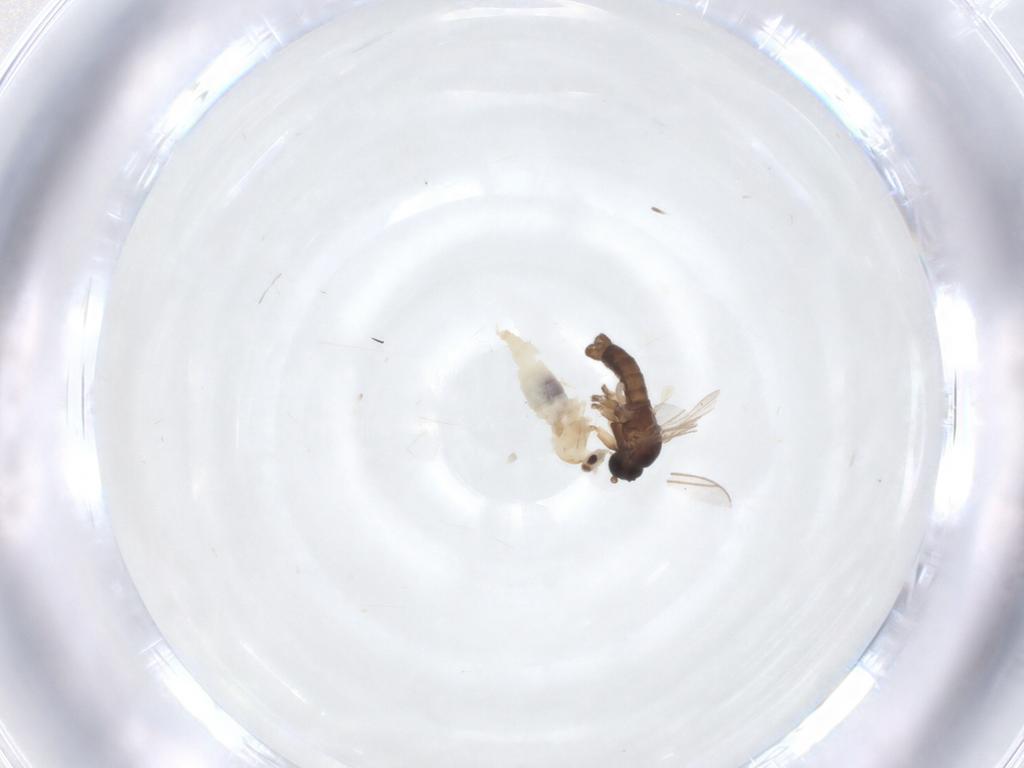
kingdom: Animalia
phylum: Arthropoda
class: Insecta
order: Diptera
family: Sciaridae
